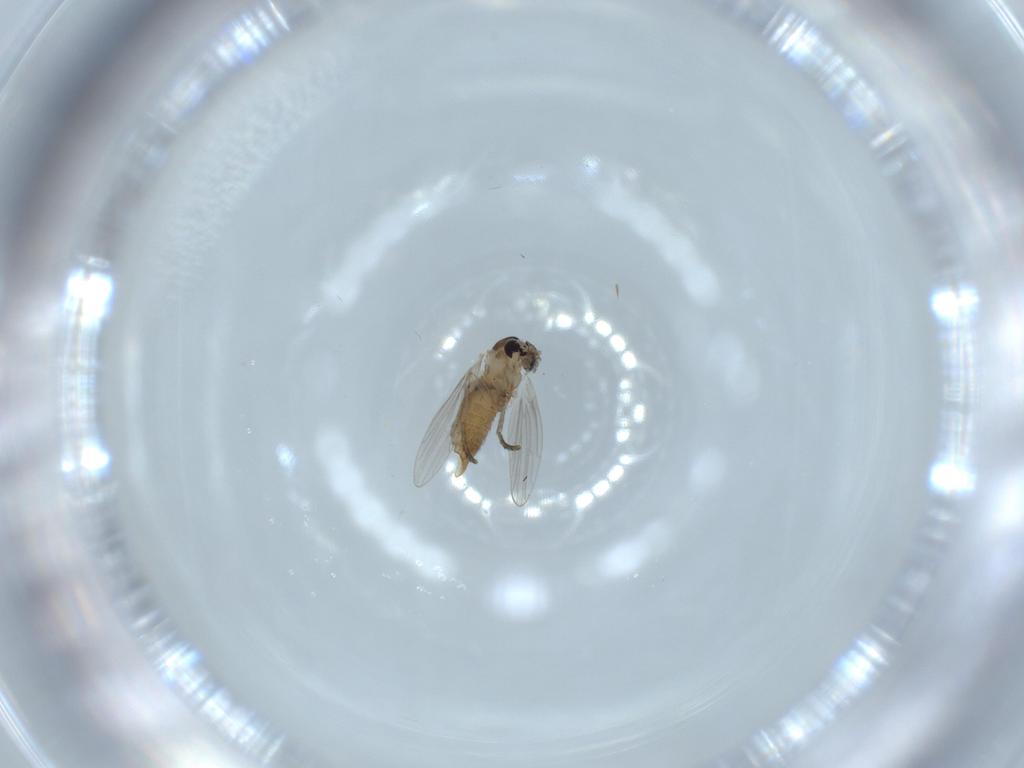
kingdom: Animalia
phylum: Arthropoda
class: Insecta
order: Diptera
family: Psychodidae
